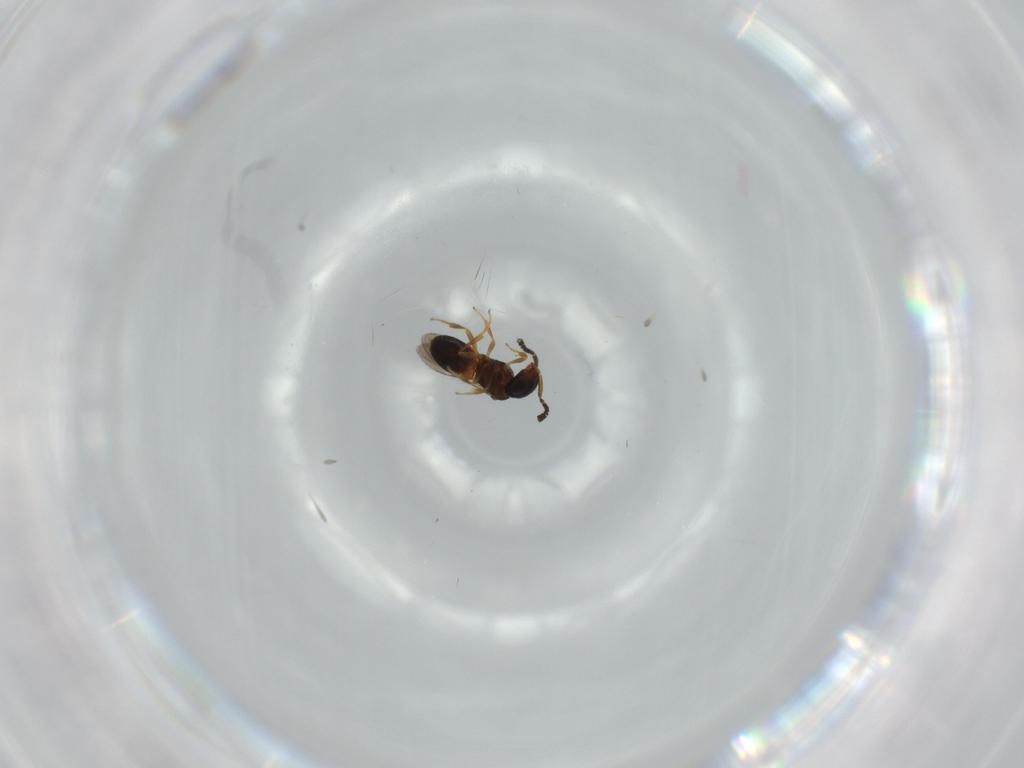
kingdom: Animalia
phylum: Arthropoda
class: Insecta
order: Hymenoptera
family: Scelionidae
